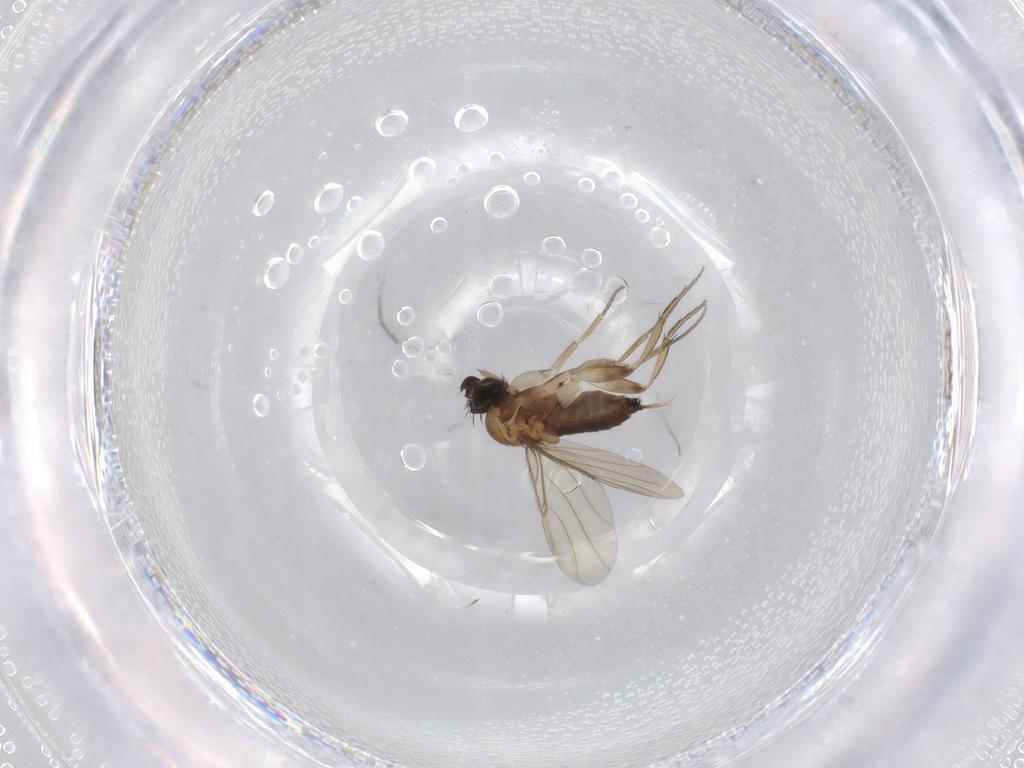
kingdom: Animalia
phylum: Arthropoda
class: Insecta
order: Diptera
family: Phoridae
